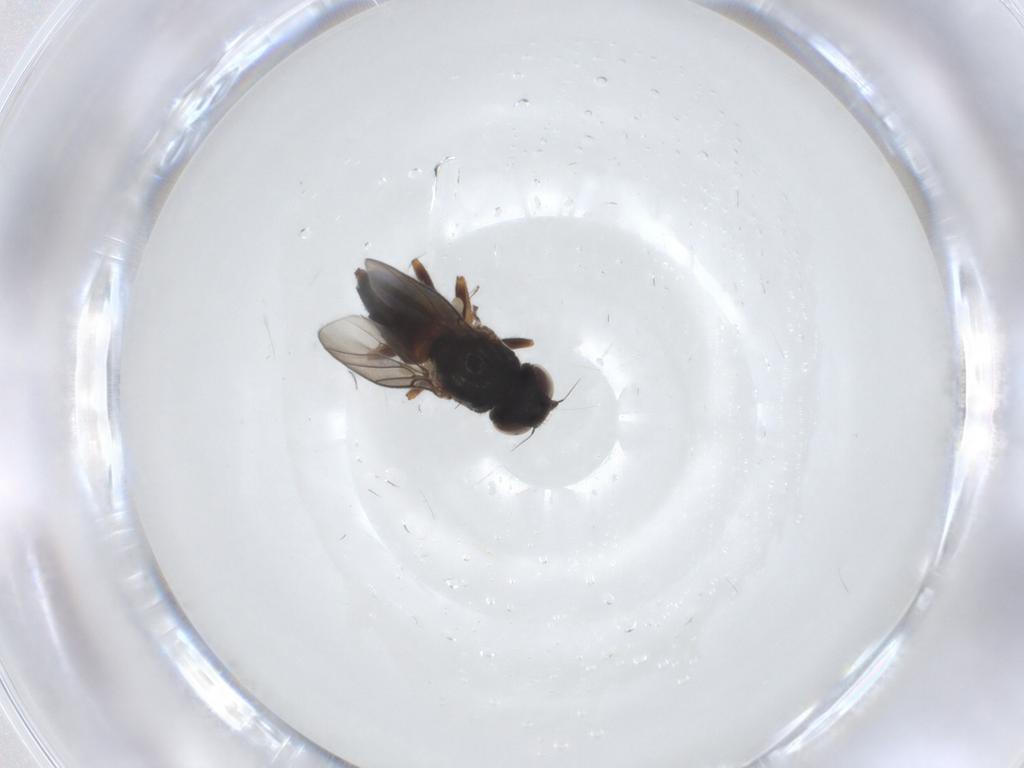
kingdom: Animalia
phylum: Arthropoda
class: Insecta
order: Diptera
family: Chloropidae
